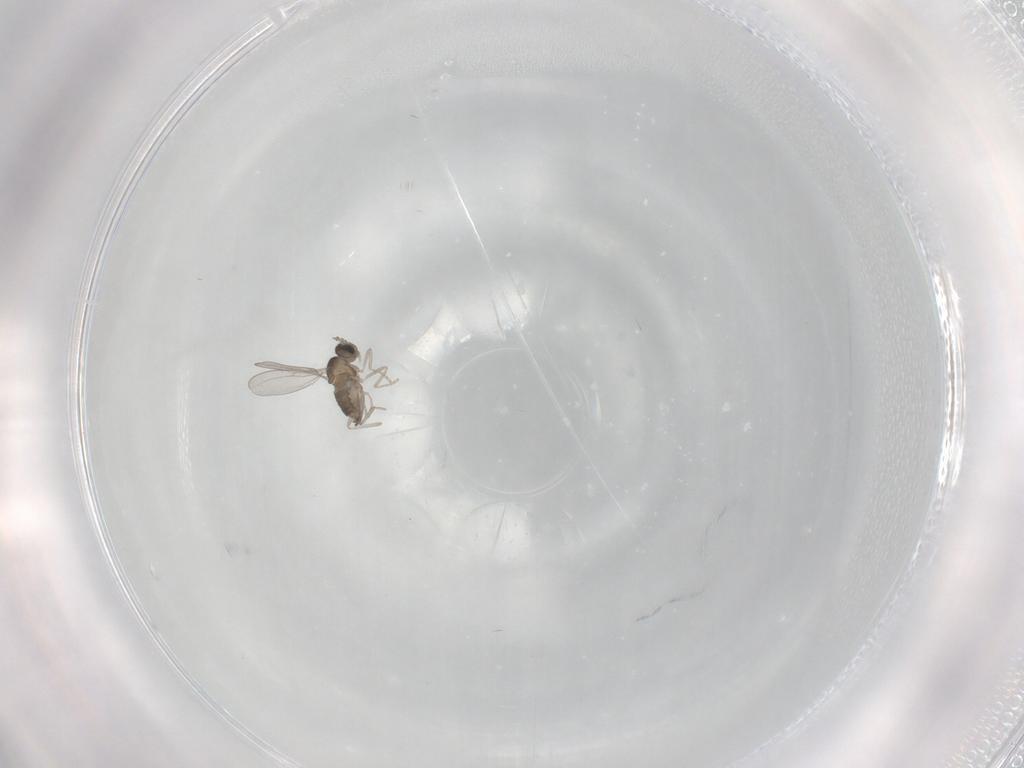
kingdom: Animalia
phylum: Arthropoda
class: Insecta
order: Diptera
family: Cecidomyiidae
